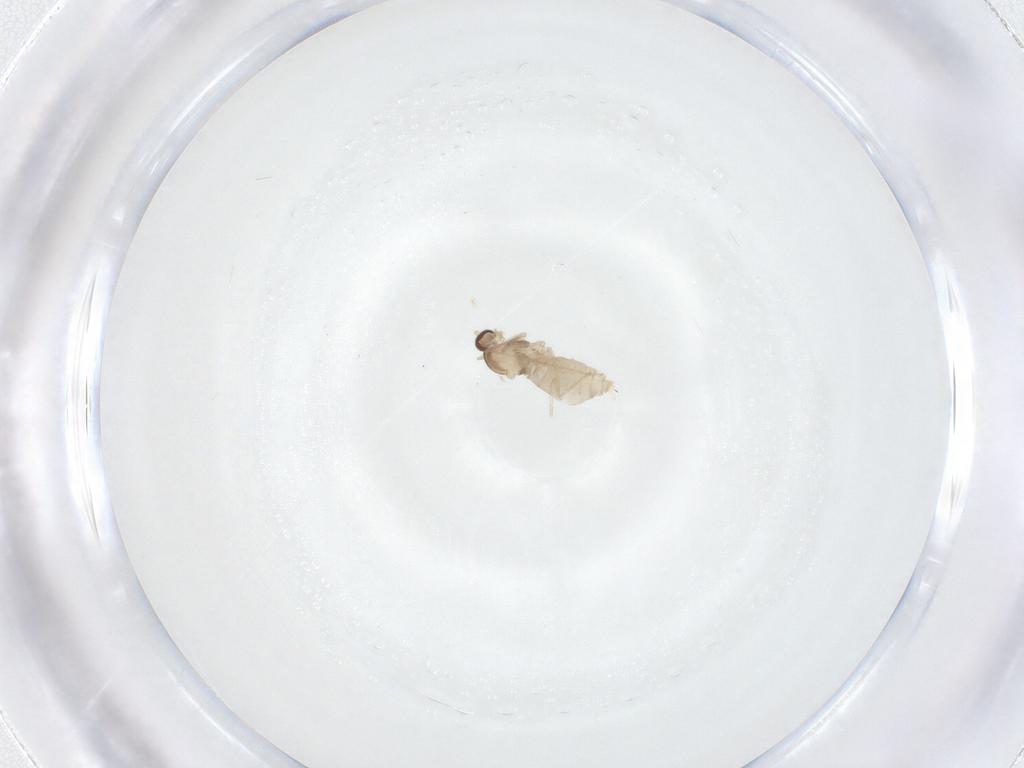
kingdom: Animalia
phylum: Arthropoda
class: Insecta
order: Diptera
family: Cecidomyiidae
